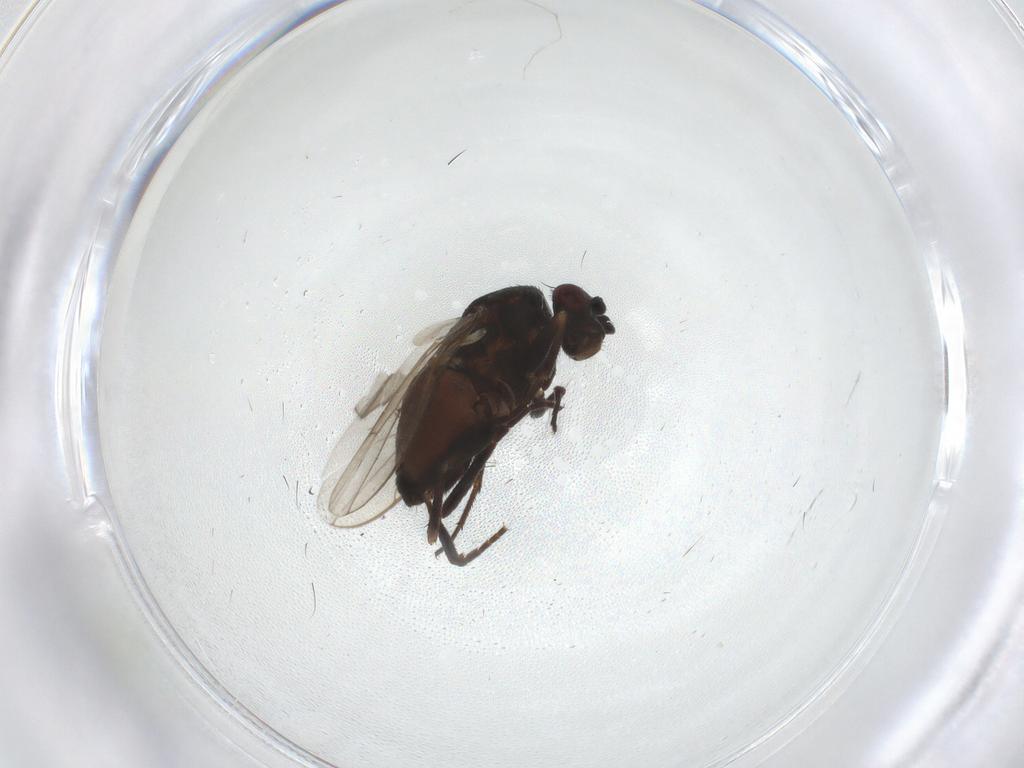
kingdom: Animalia
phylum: Arthropoda
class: Insecta
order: Diptera
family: Sphaeroceridae
